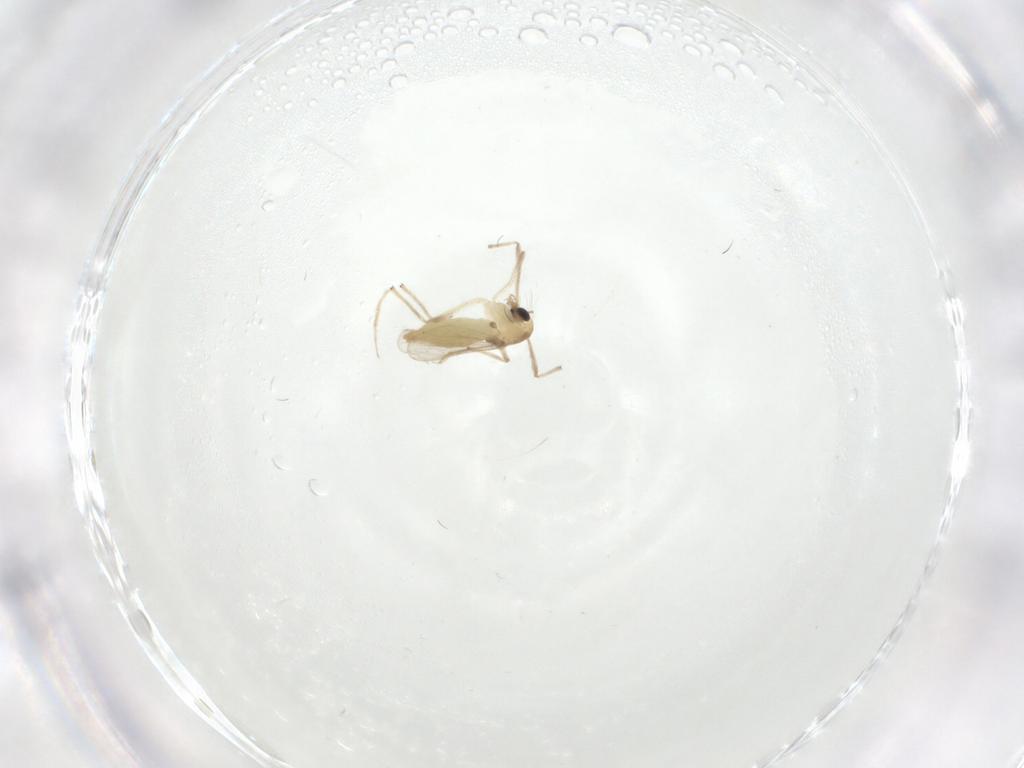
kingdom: Animalia
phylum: Arthropoda
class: Insecta
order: Diptera
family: Chironomidae
